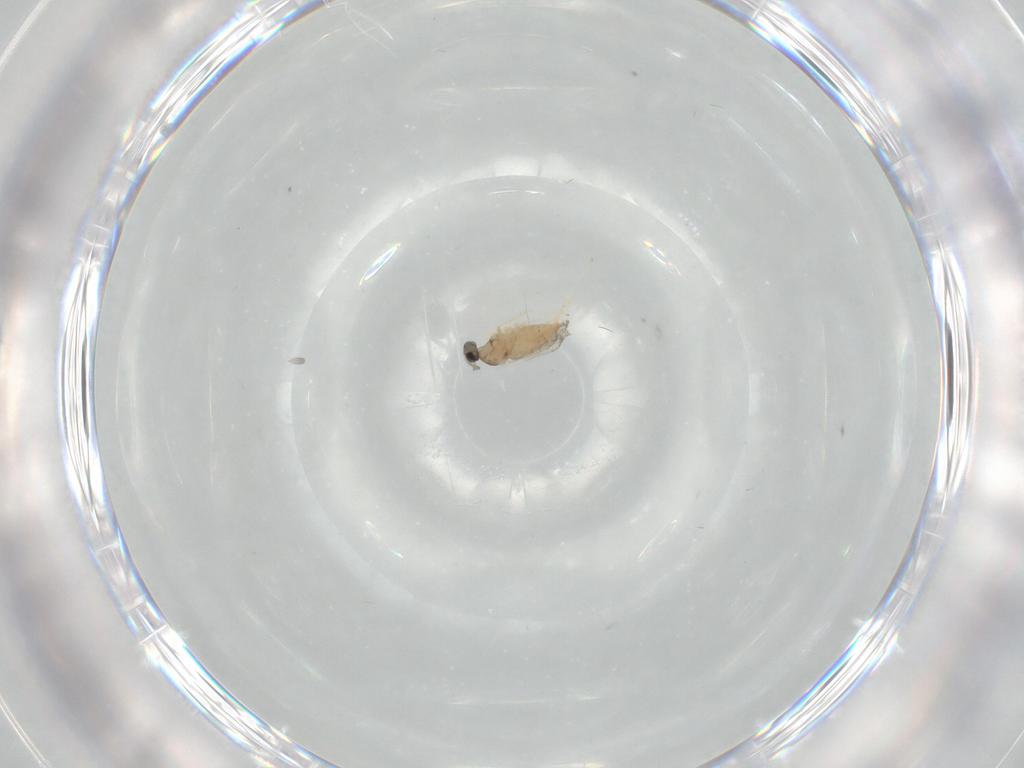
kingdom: Animalia
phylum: Arthropoda
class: Insecta
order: Diptera
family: Cecidomyiidae
